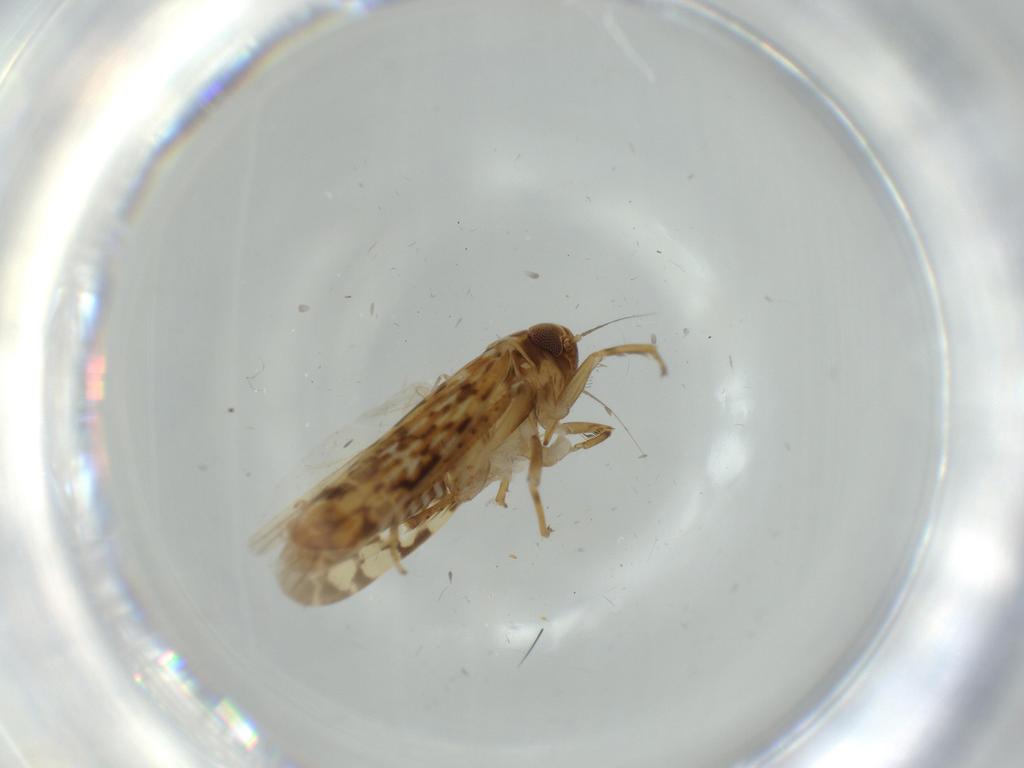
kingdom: Animalia
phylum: Arthropoda
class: Insecta
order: Hemiptera
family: Cicadellidae
